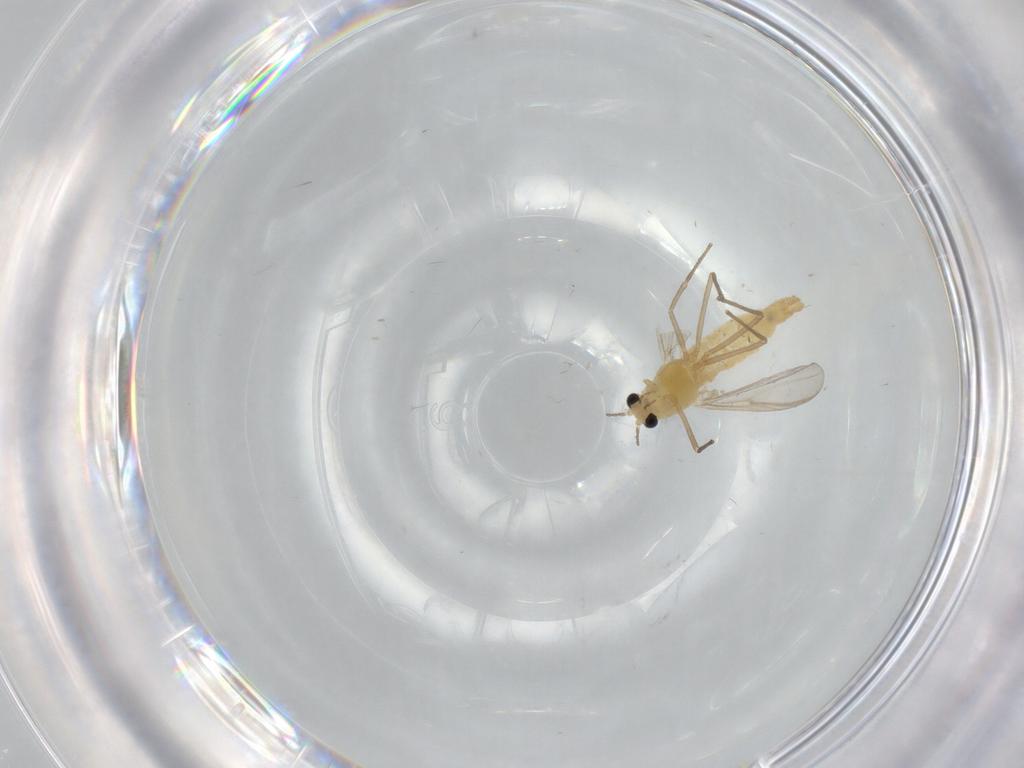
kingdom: Animalia
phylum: Arthropoda
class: Insecta
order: Diptera
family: Chironomidae
